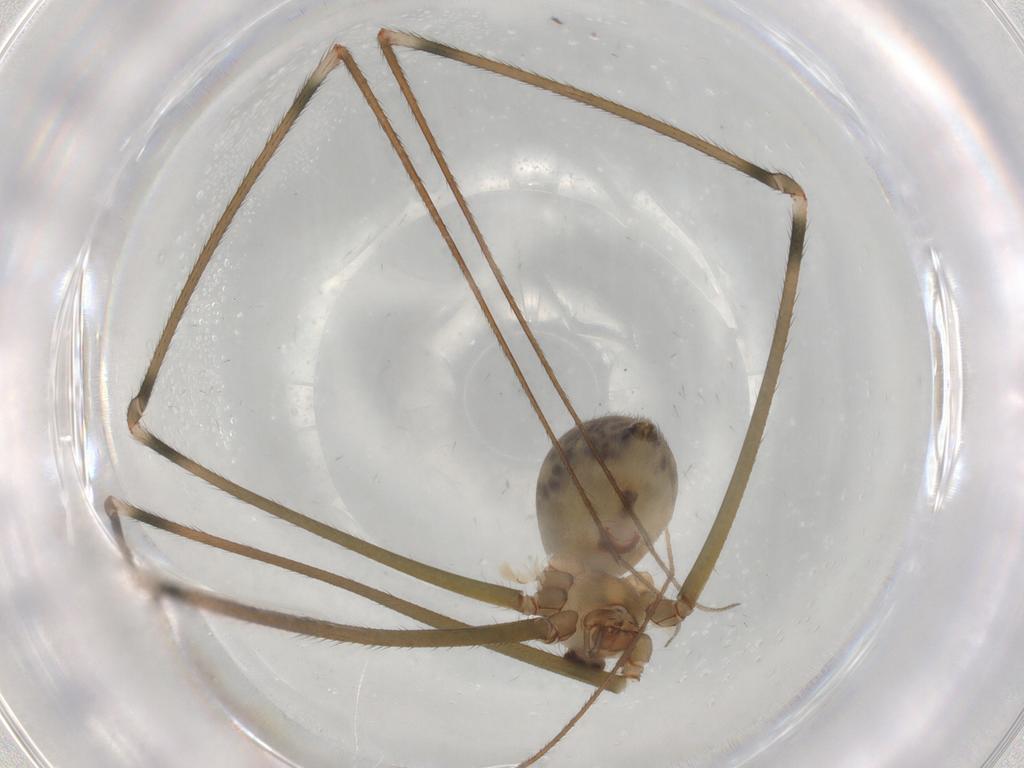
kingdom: Animalia
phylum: Arthropoda
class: Arachnida
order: Araneae
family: Pholcidae
